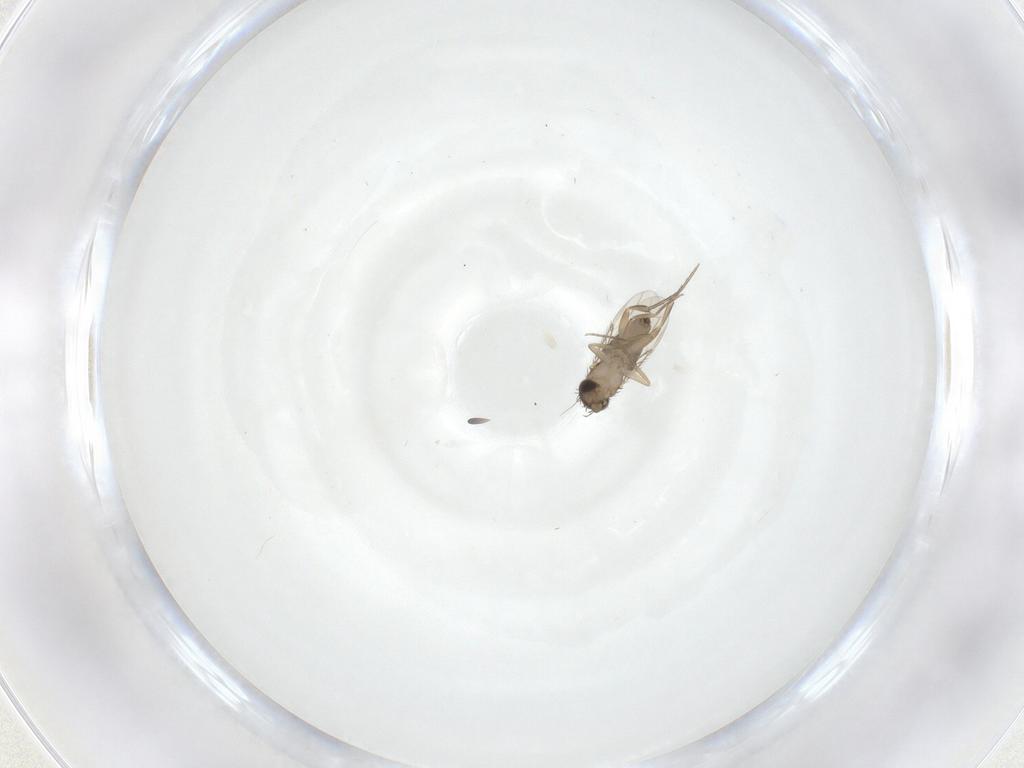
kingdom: Animalia
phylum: Arthropoda
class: Insecta
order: Diptera
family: Phoridae
